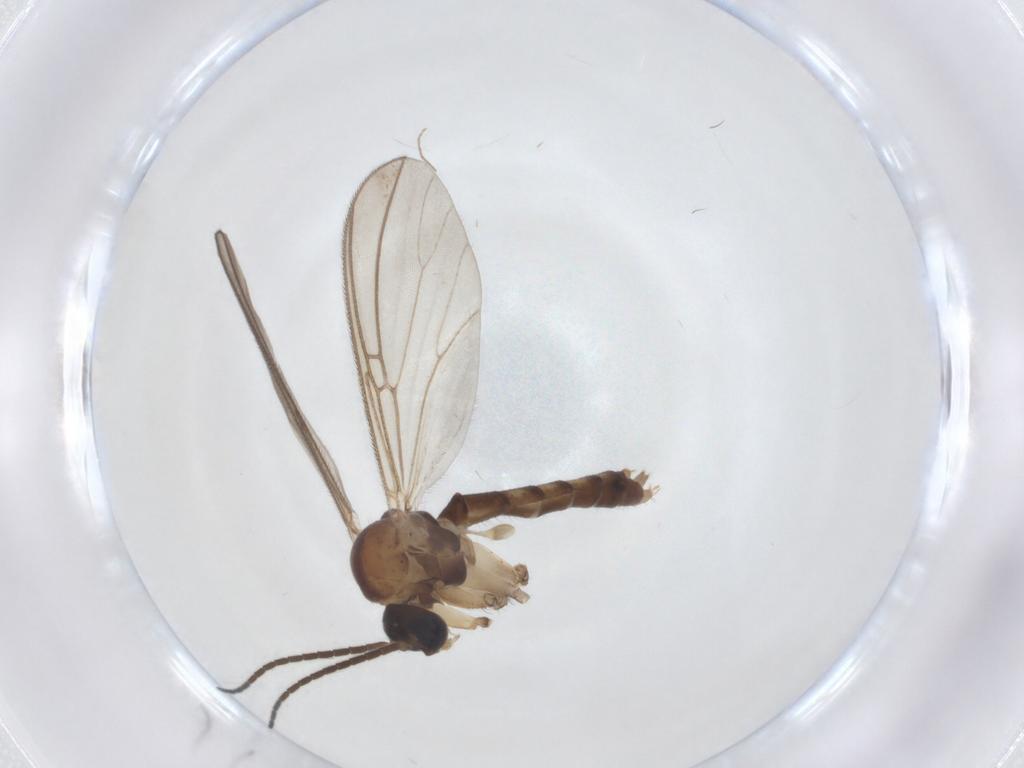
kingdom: Animalia
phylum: Arthropoda
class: Insecta
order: Diptera
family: Mycetophilidae
